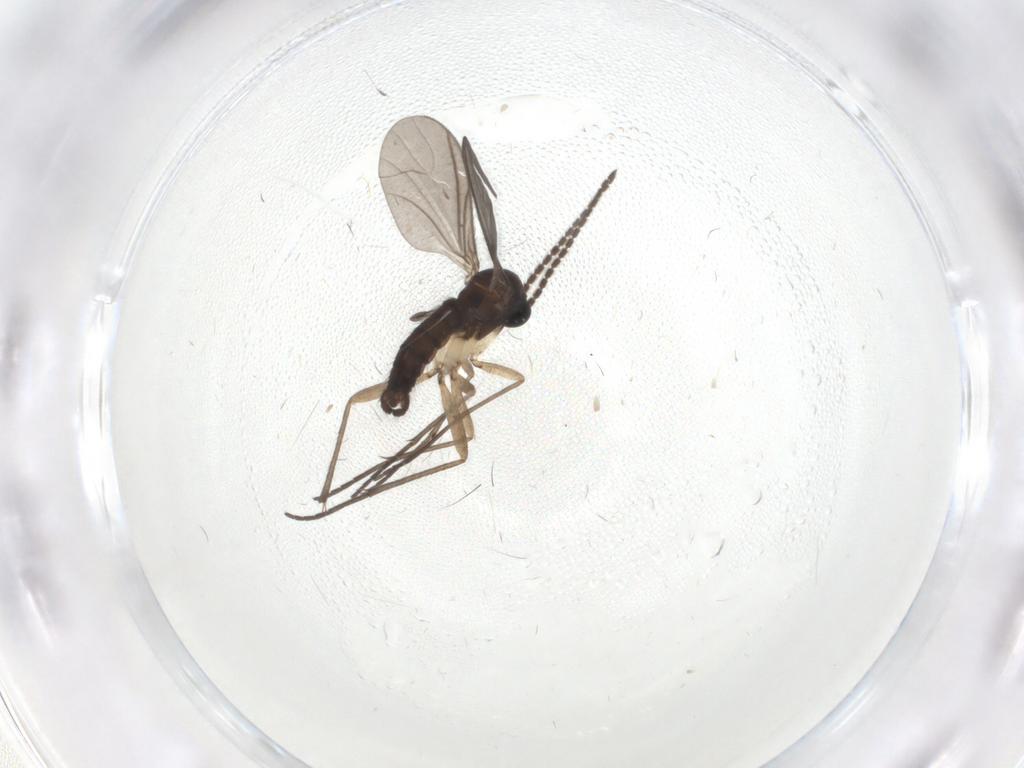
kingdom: Animalia
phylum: Arthropoda
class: Insecta
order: Diptera
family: Sciaridae
